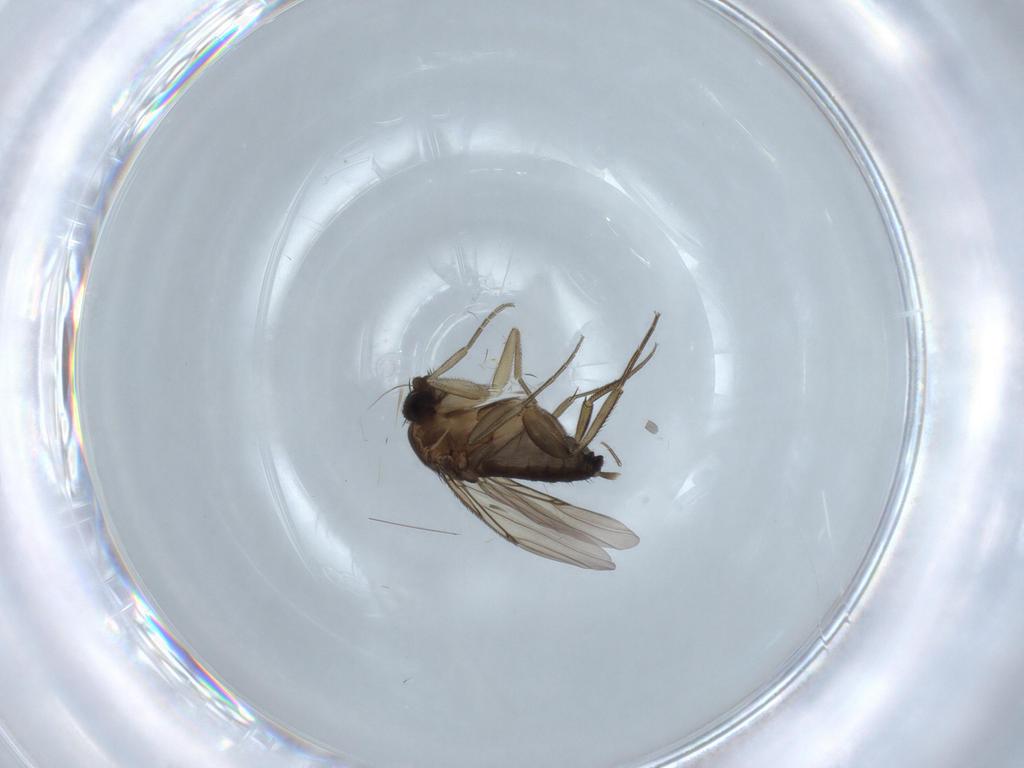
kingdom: Animalia
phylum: Arthropoda
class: Insecta
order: Diptera
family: Phoridae
